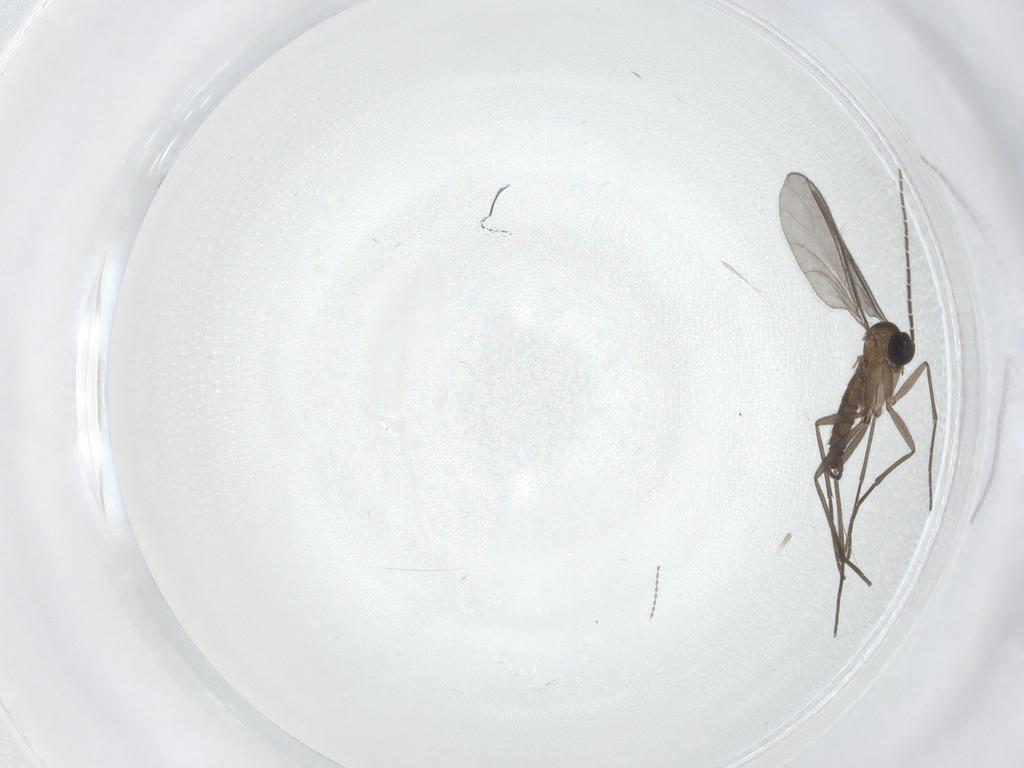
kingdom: Animalia
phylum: Arthropoda
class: Insecta
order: Diptera
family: Sciaridae
